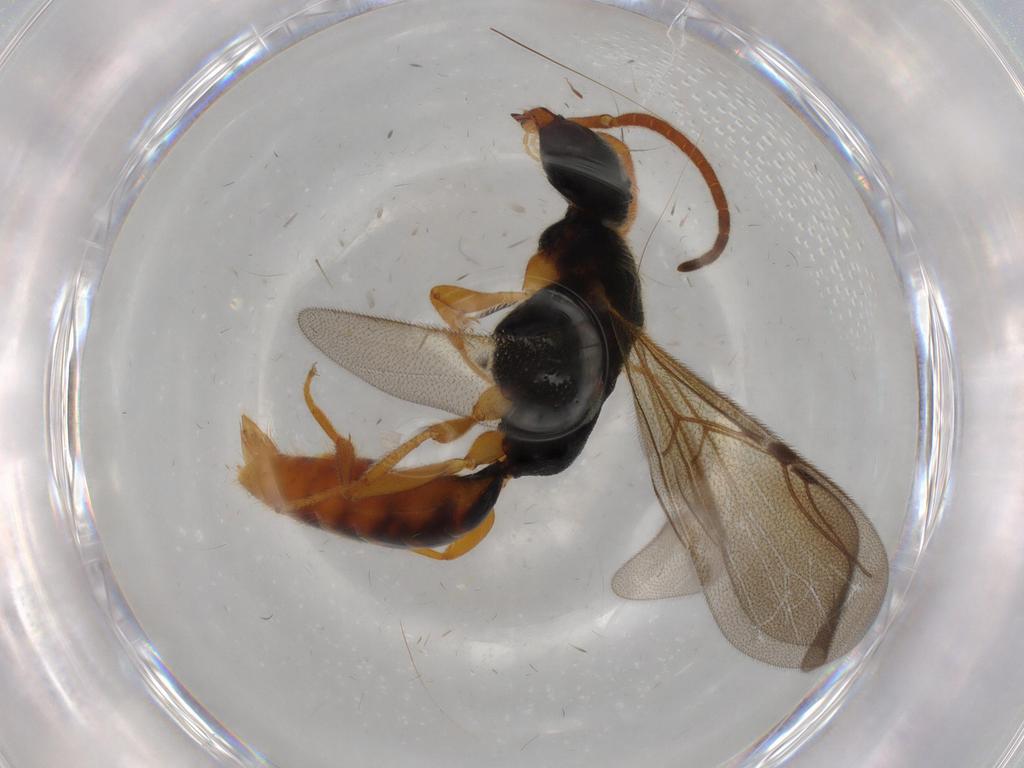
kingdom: Animalia
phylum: Arthropoda
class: Insecta
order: Hymenoptera
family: Bethylidae
